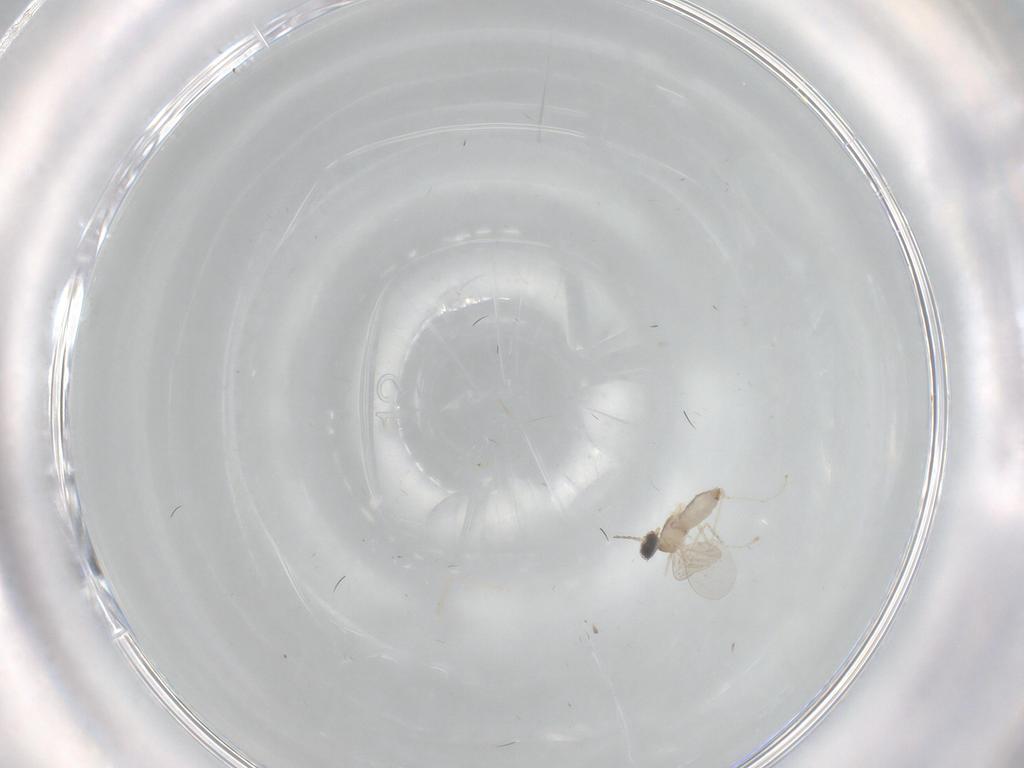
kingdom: Animalia
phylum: Arthropoda
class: Insecta
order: Diptera
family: Cecidomyiidae
